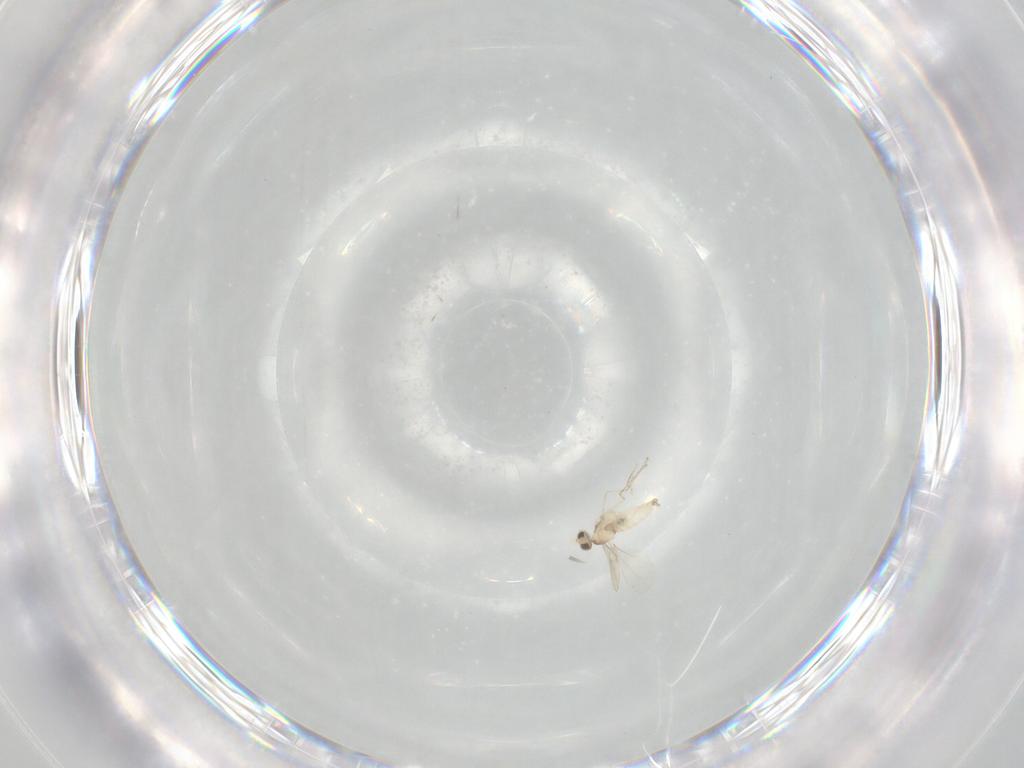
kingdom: Animalia
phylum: Arthropoda
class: Insecta
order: Diptera
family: Cecidomyiidae
